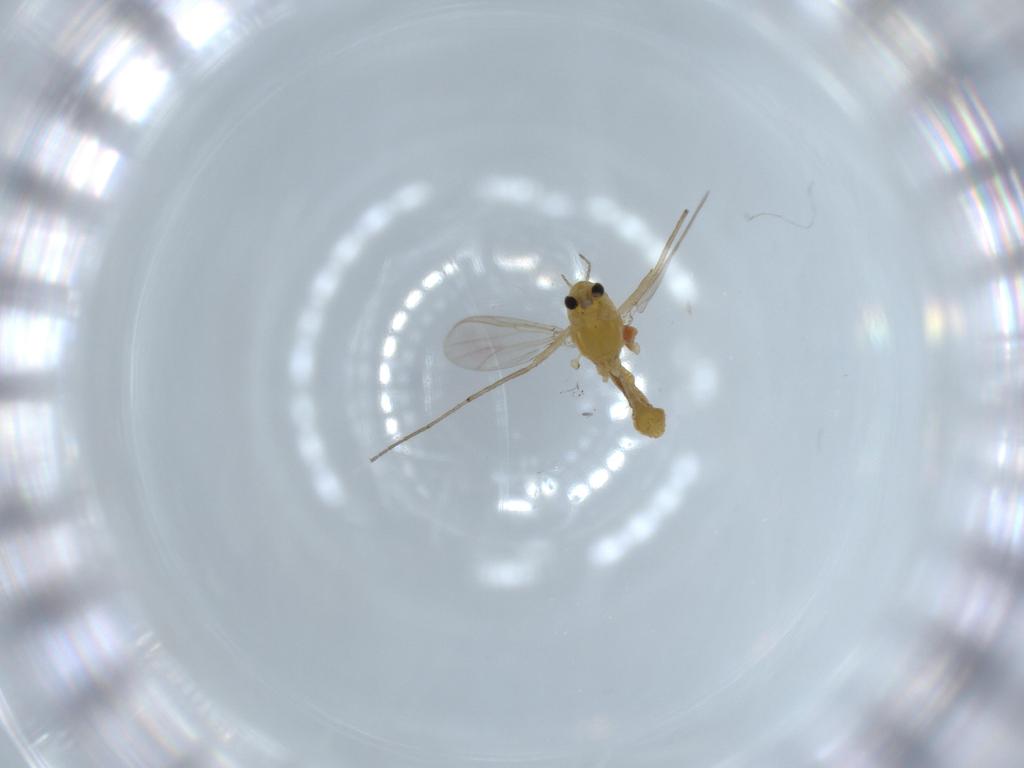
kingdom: Animalia
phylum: Arthropoda
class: Insecta
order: Diptera
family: Chironomidae
